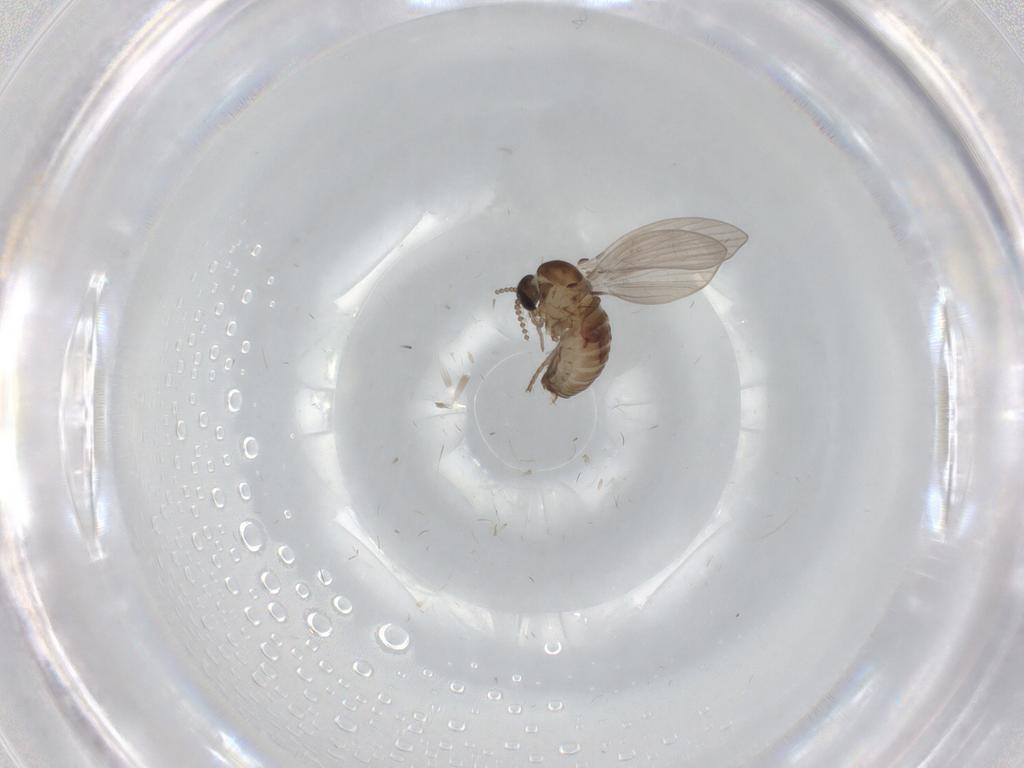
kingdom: Animalia
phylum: Arthropoda
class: Insecta
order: Diptera
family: Psychodidae
